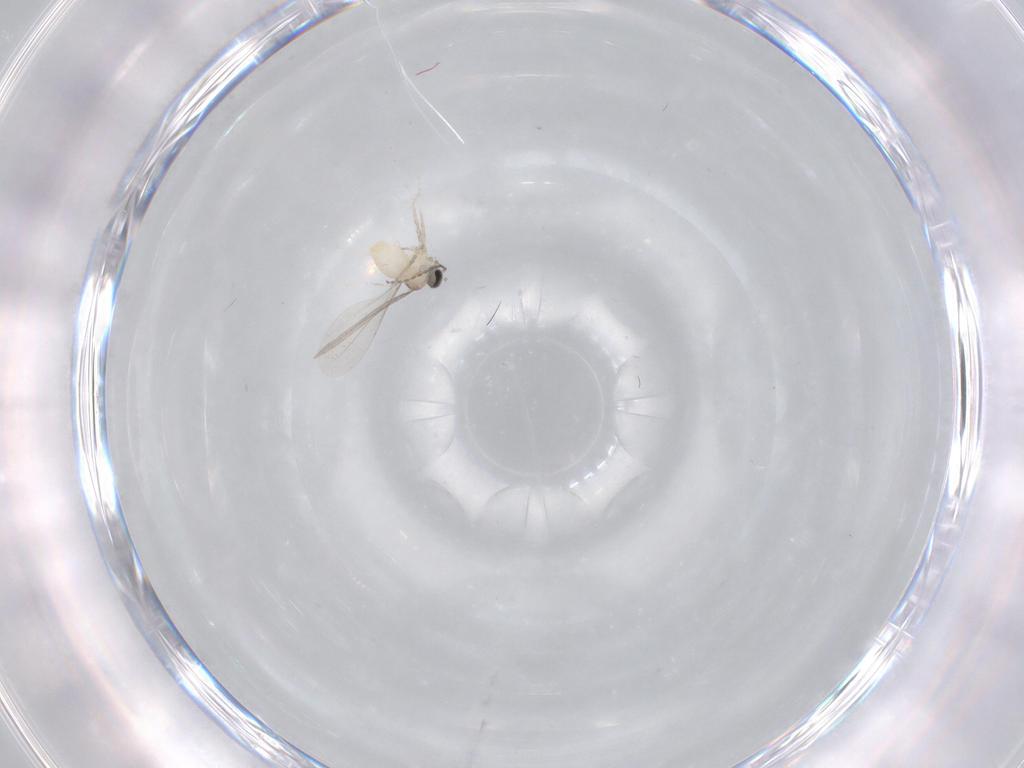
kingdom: Animalia
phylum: Arthropoda
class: Insecta
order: Diptera
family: Cecidomyiidae
